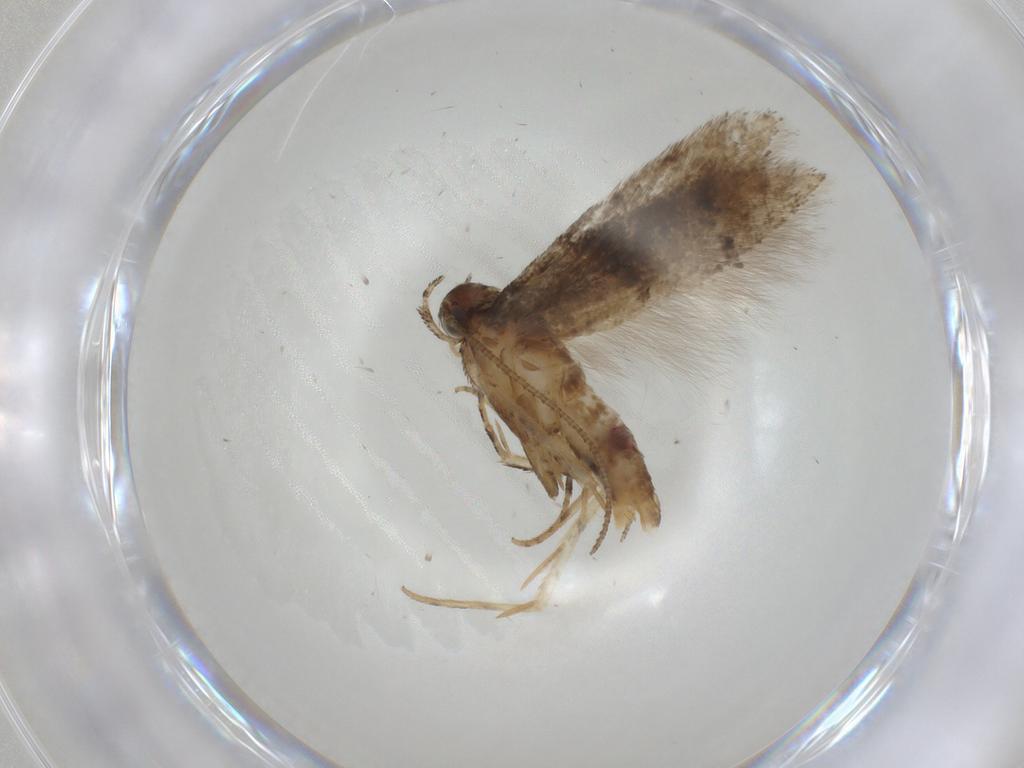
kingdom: Animalia
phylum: Arthropoda
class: Insecta
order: Lepidoptera
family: Gelechiidae
